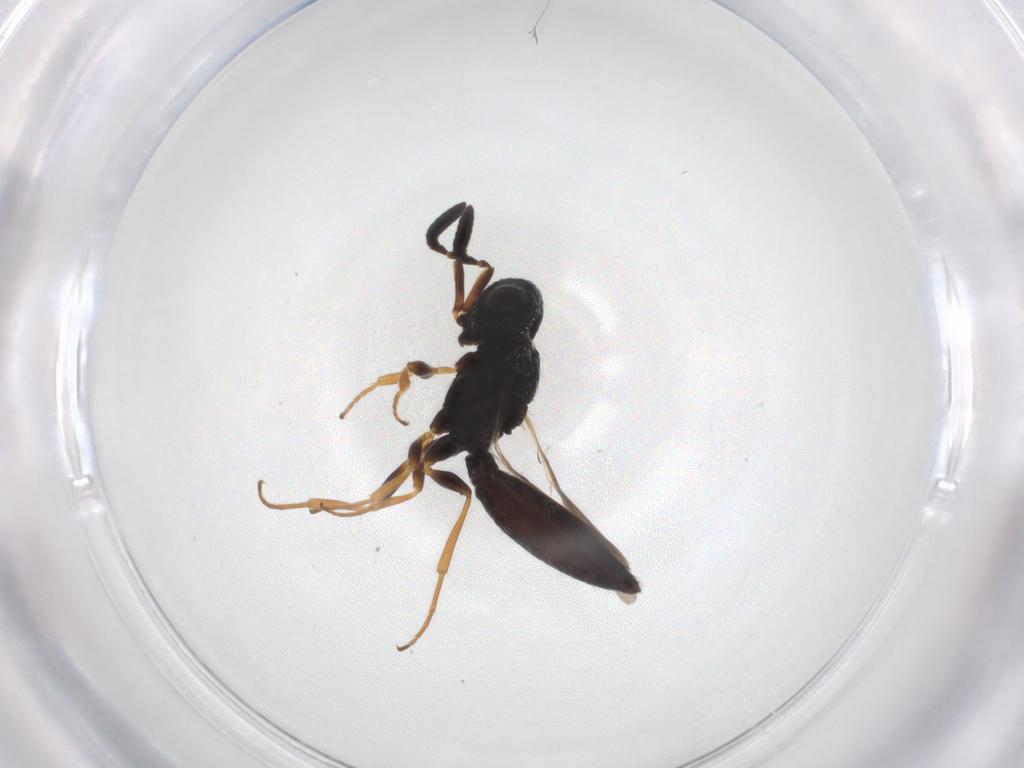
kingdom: Animalia
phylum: Arthropoda
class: Insecta
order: Hymenoptera
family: Scelionidae
